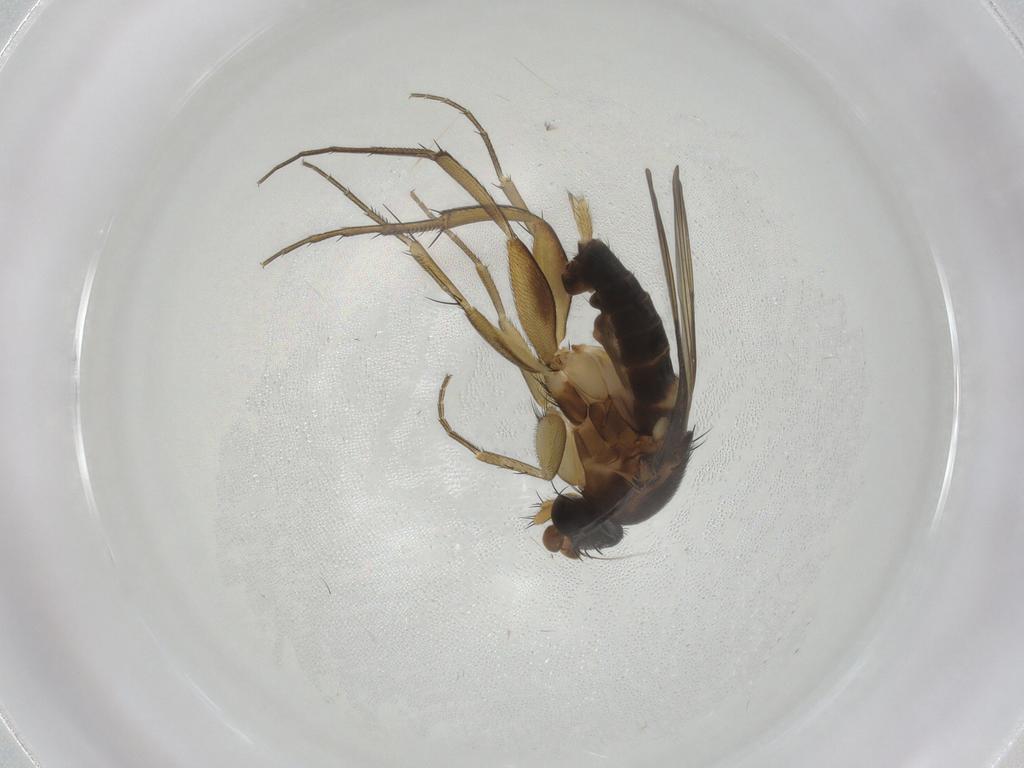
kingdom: Animalia
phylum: Arthropoda
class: Insecta
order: Diptera
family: Phoridae
